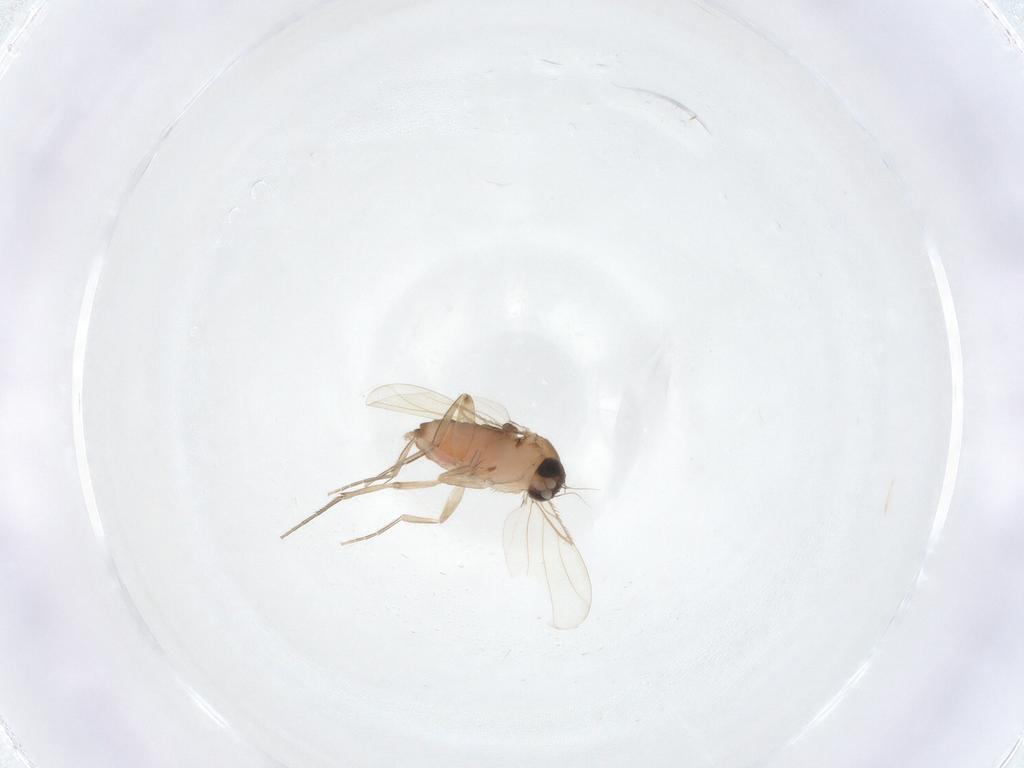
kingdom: Animalia
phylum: Arthropoda
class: Insecta
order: Diptera
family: Phoridae
